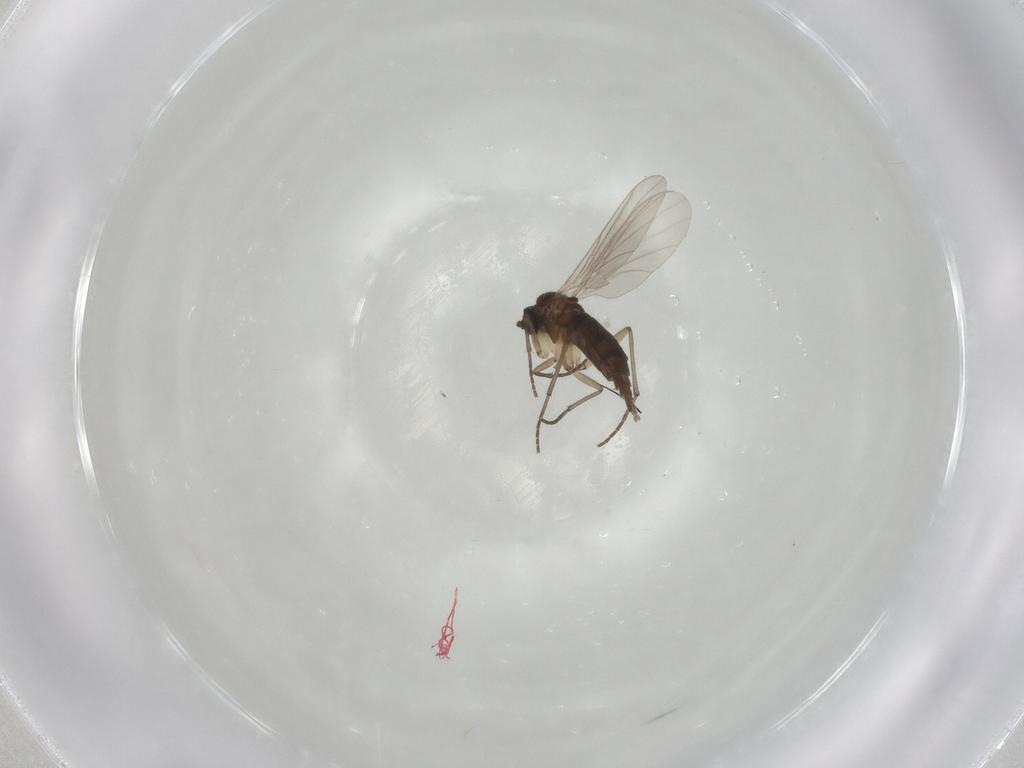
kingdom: Animalia
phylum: Arthropoda
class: Insecta
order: Diptera
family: Sciaridae
